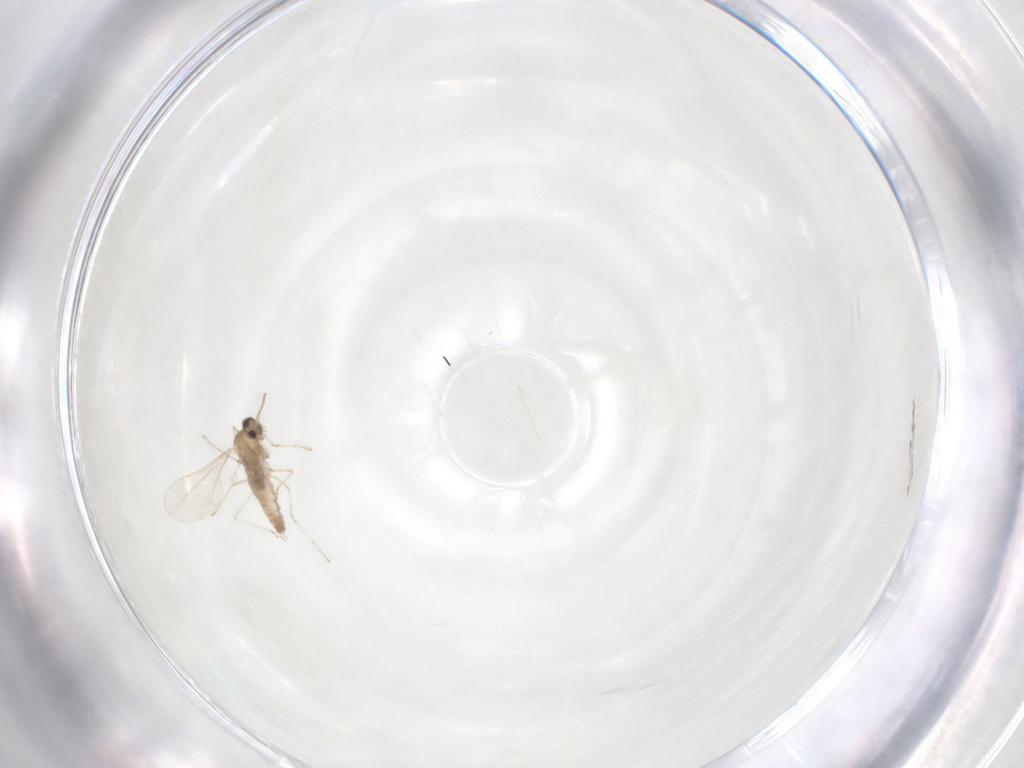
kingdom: Animalia
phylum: Arthropoda
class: Insecta
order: Diptera
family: Cecidomyiidae
